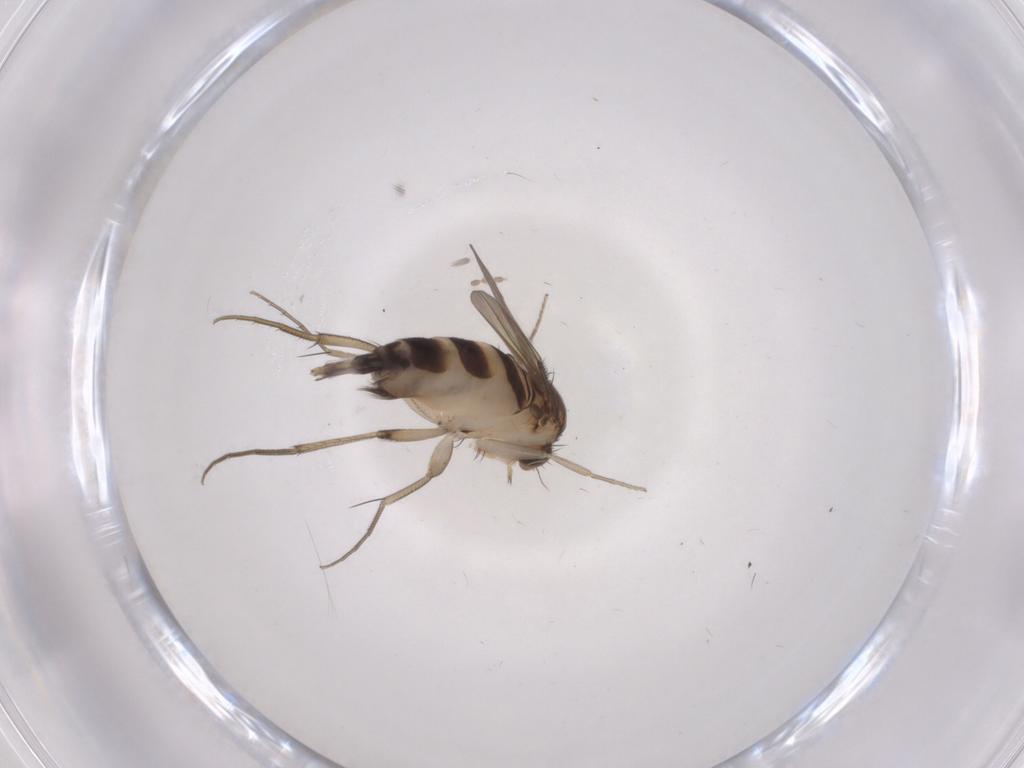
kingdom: Animalia
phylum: Arthropoda
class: Insecta
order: Diptera
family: Phoridae
